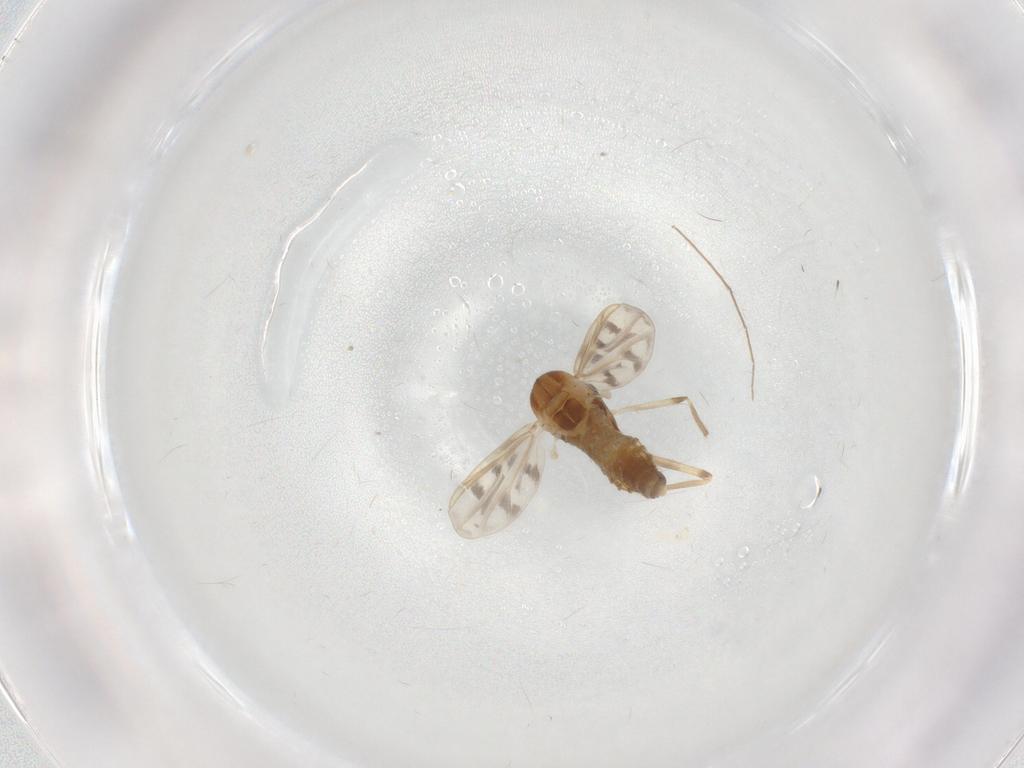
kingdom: Animalia
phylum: Arthropoda
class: Insecta
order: Diptera
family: Chironomidae
